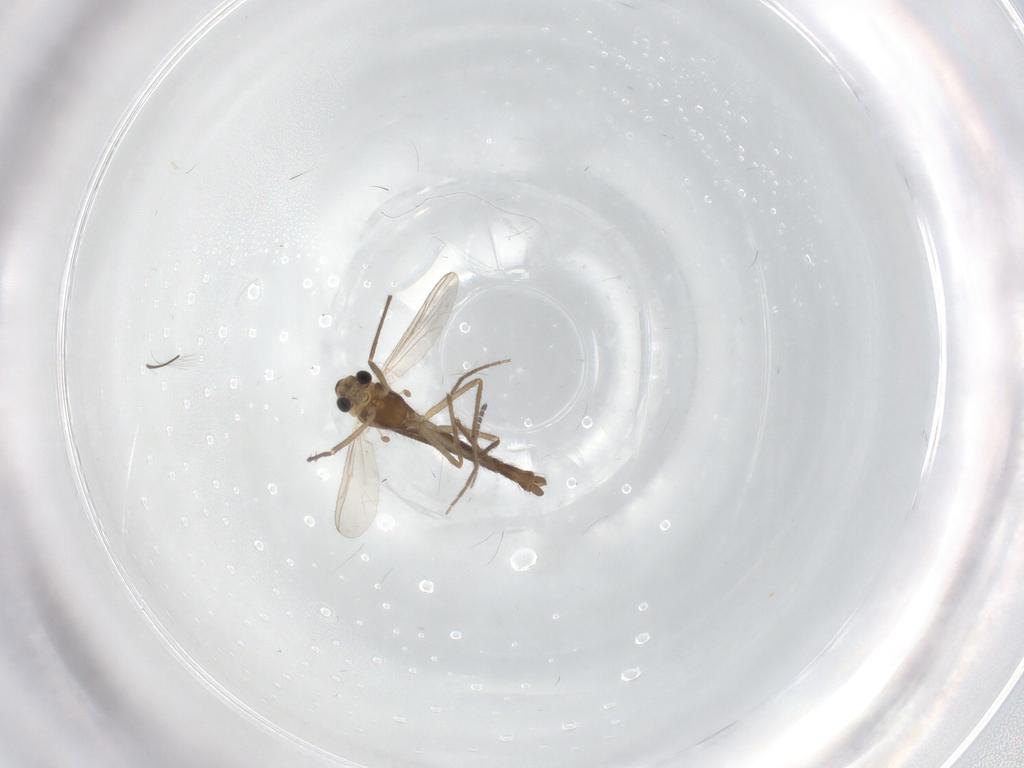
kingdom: Animalia
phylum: Arthropoda
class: Insecta
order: Diptera
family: Chironomidae
